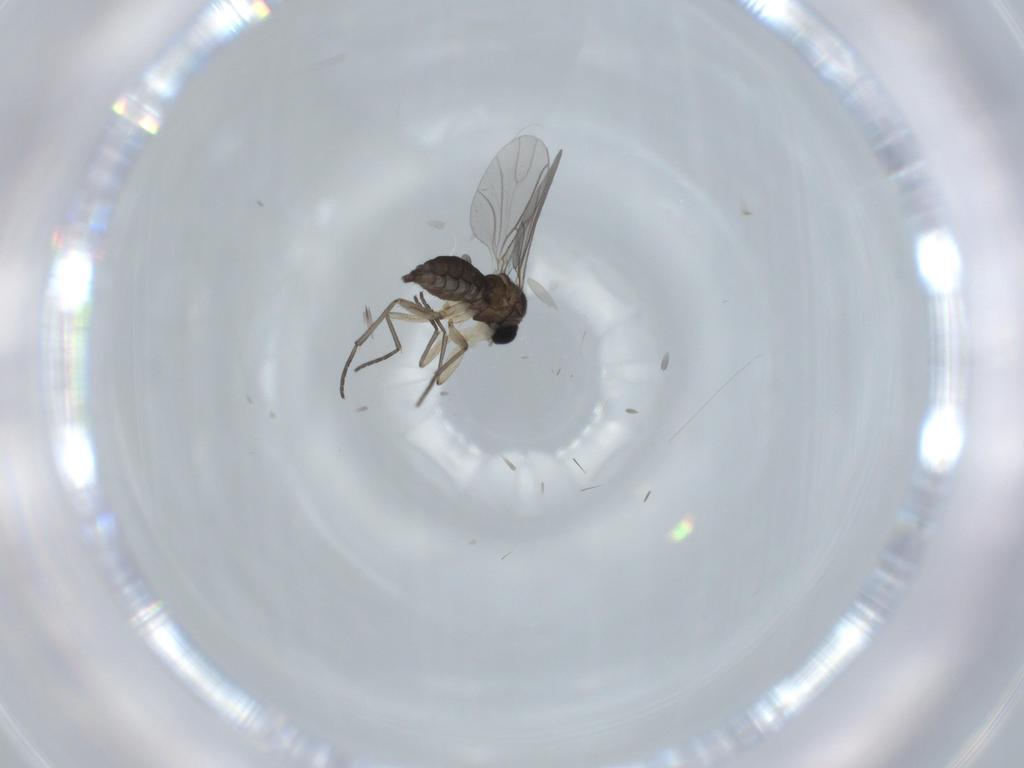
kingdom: Animalia
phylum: Arthropoda
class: Insecta
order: Diptera
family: Sciaridae
